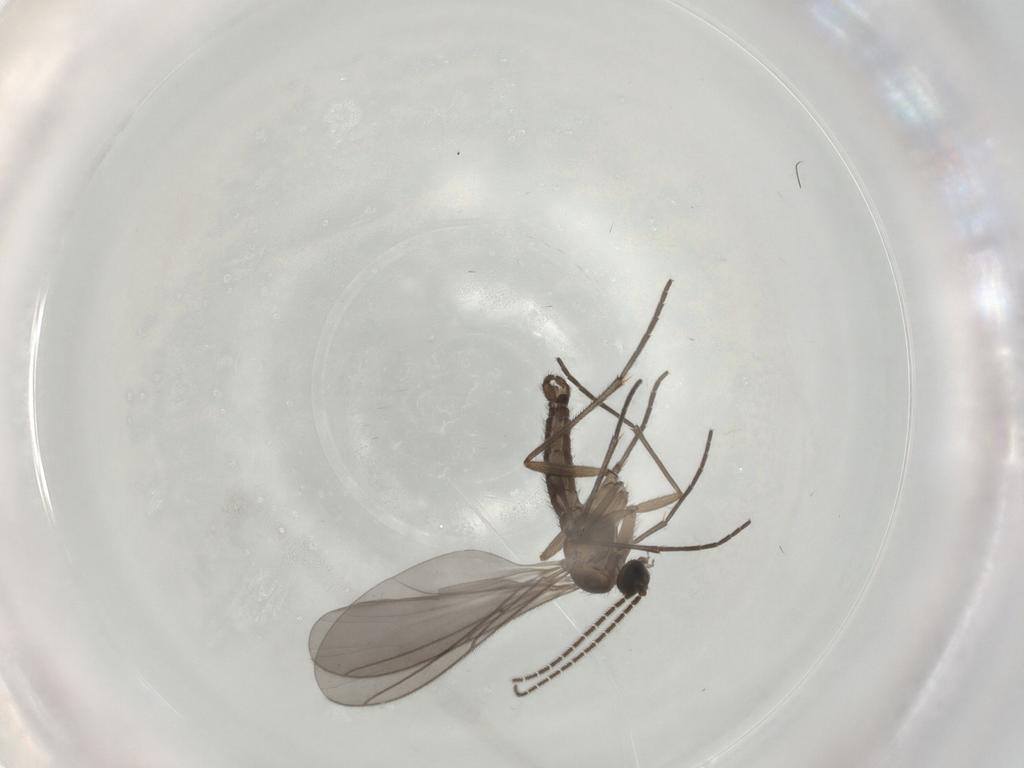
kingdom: Animalia
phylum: Arthropoda
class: Insecta
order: Diptera
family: Sciaridae
